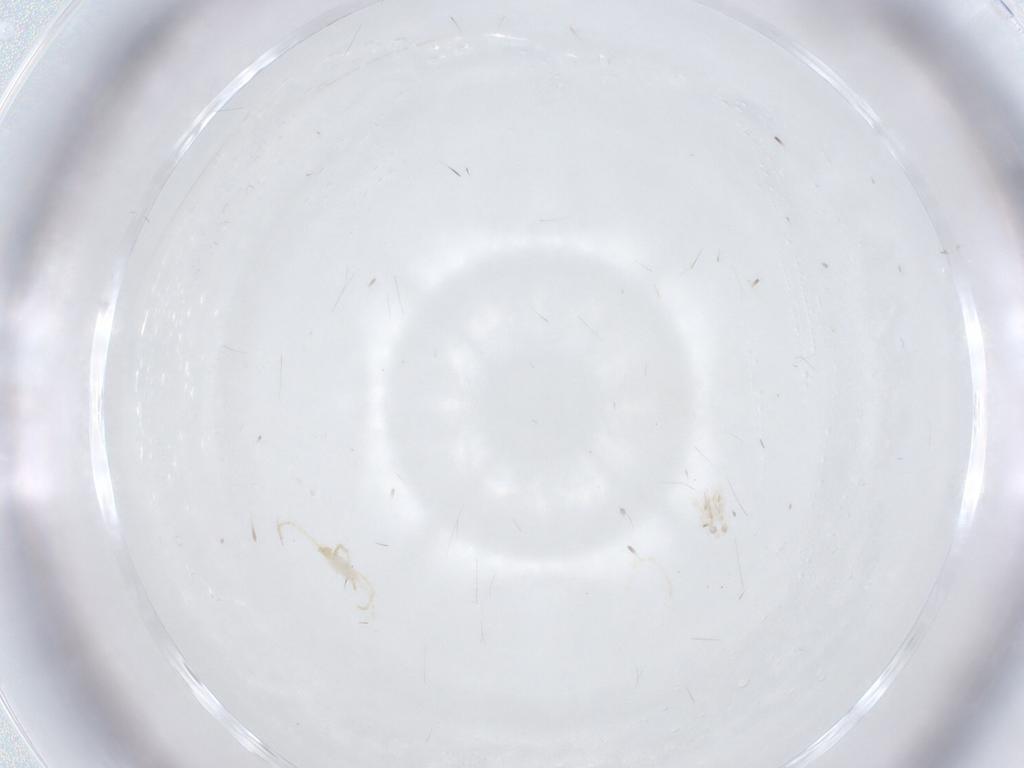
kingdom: Animalia
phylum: Arthropoda
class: Arachnida
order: Trombidiformes
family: Erythraeidae
